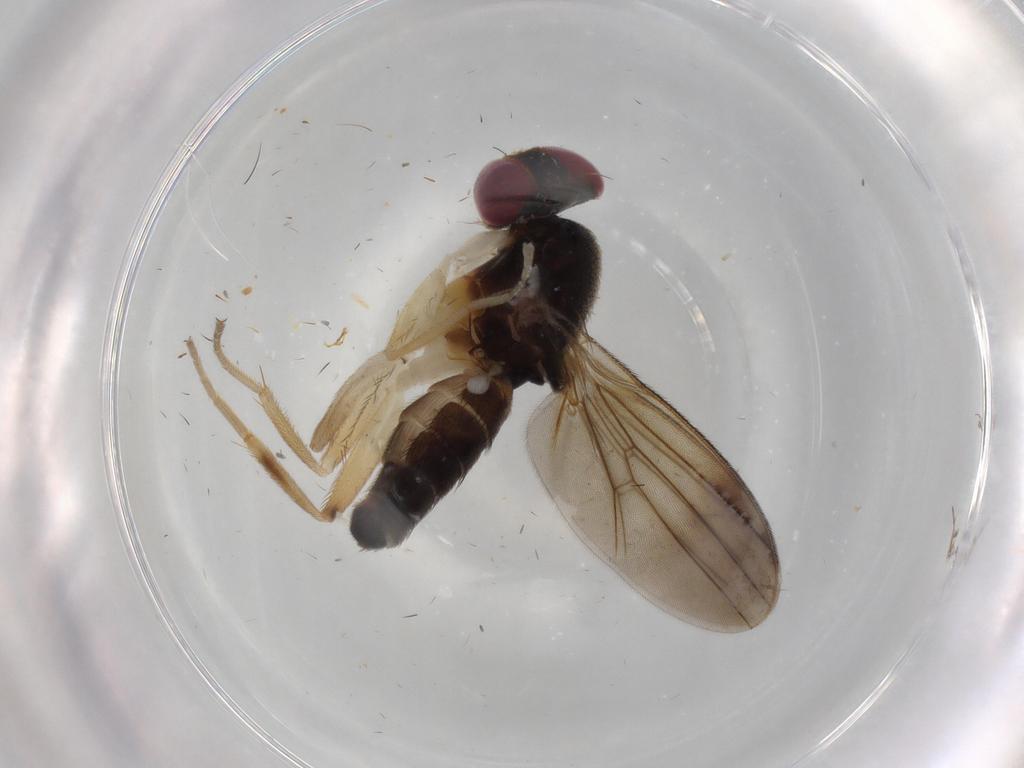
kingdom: Animalia
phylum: Arthropoda
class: Insecta
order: Diptera
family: Clusiidae
